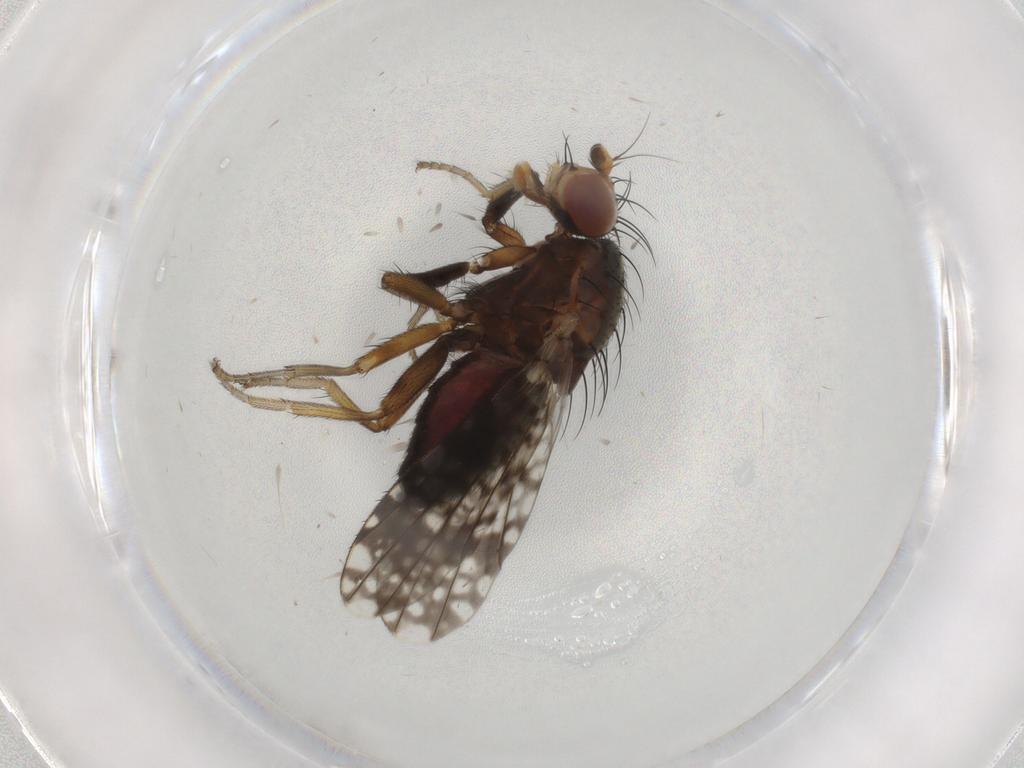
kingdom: Animalia
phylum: Arthropoda
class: Insecta
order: Diptera
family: Tephritidae
